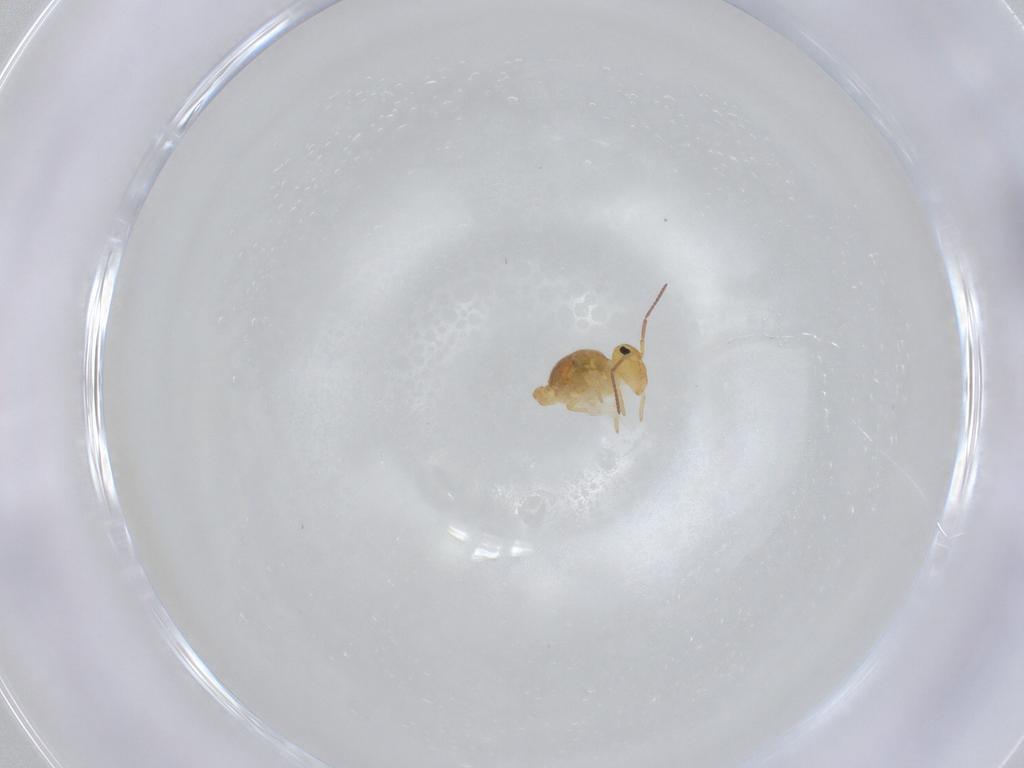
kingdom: Animalia
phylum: Arthropoda
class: Collembola
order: Symphypleona
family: Bourletiellidae
